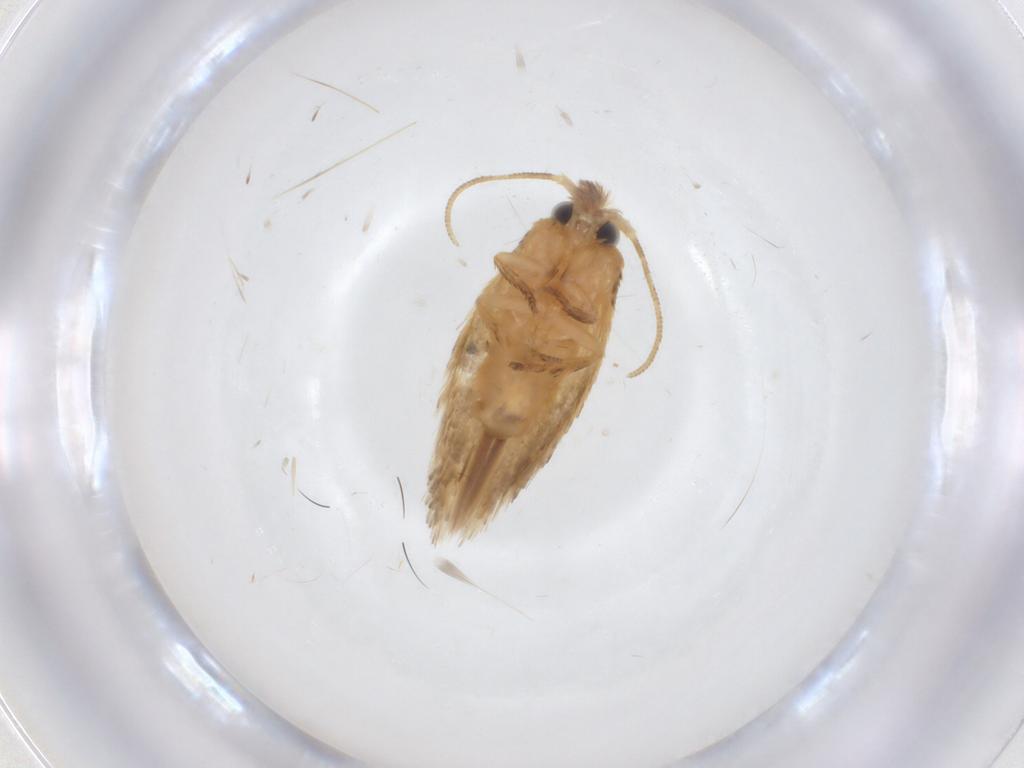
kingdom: Animalia
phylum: Arthropoda
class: Insecta
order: Lepidoptera
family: Nepticulidae
